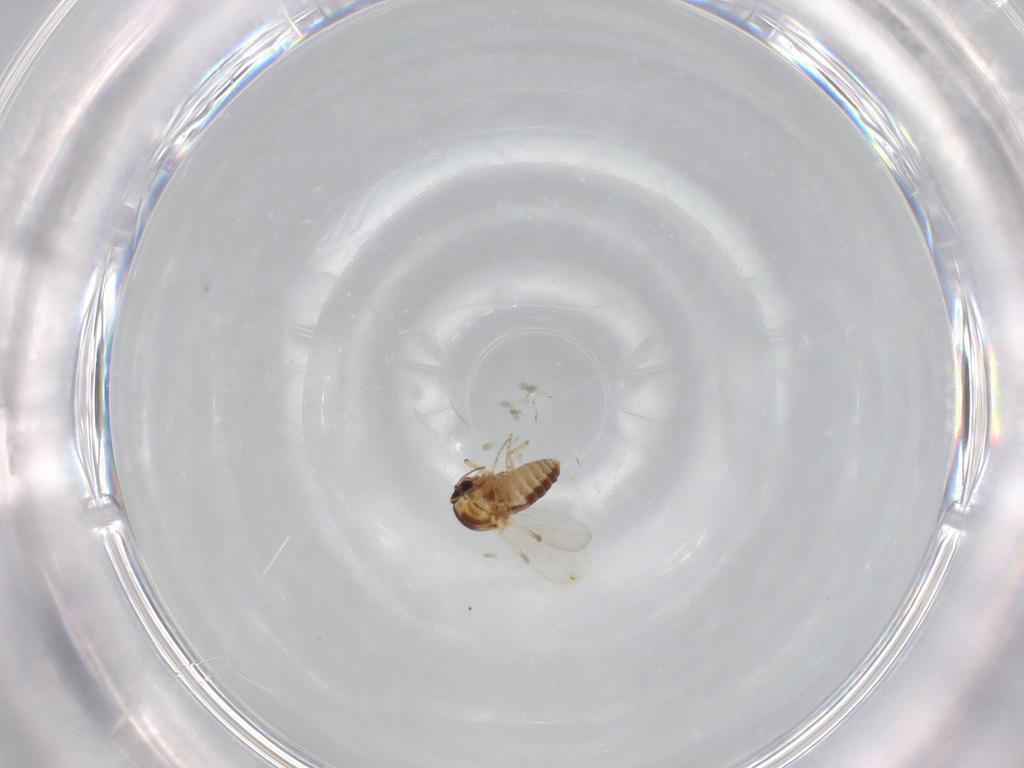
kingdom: Animalia
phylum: Arthropoda
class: Insecta
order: Diptera
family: Ceratopogonidae
